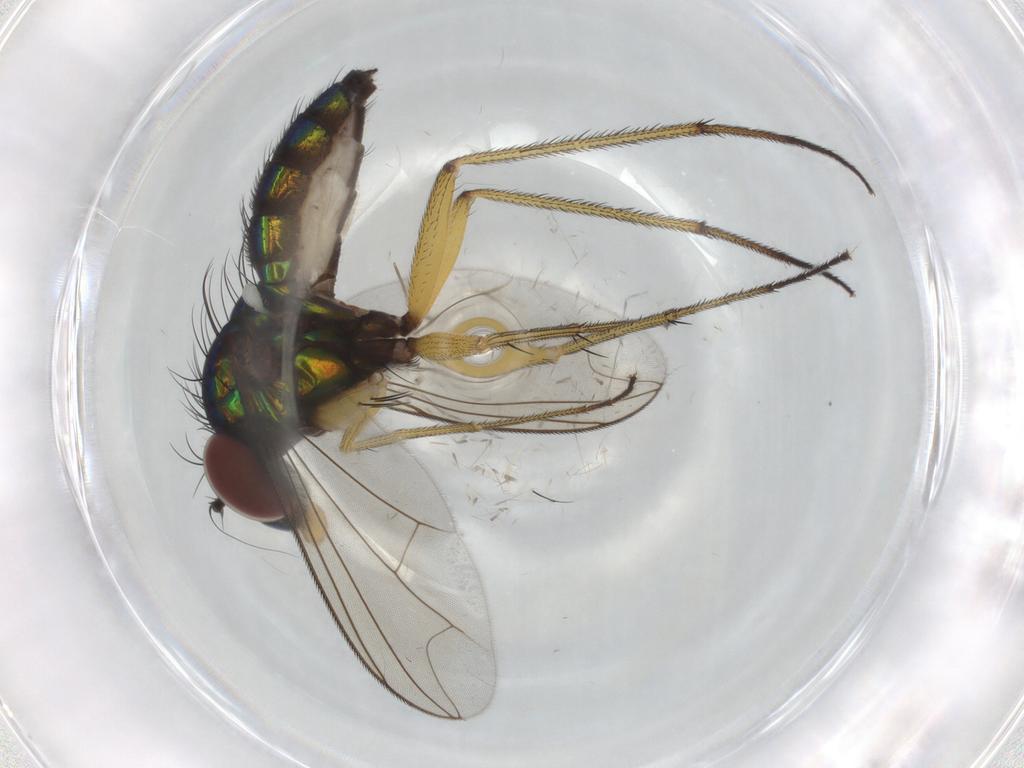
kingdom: Animalia
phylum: Arthropoda
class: Insecta
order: Diptera
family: Dolichopodidae
